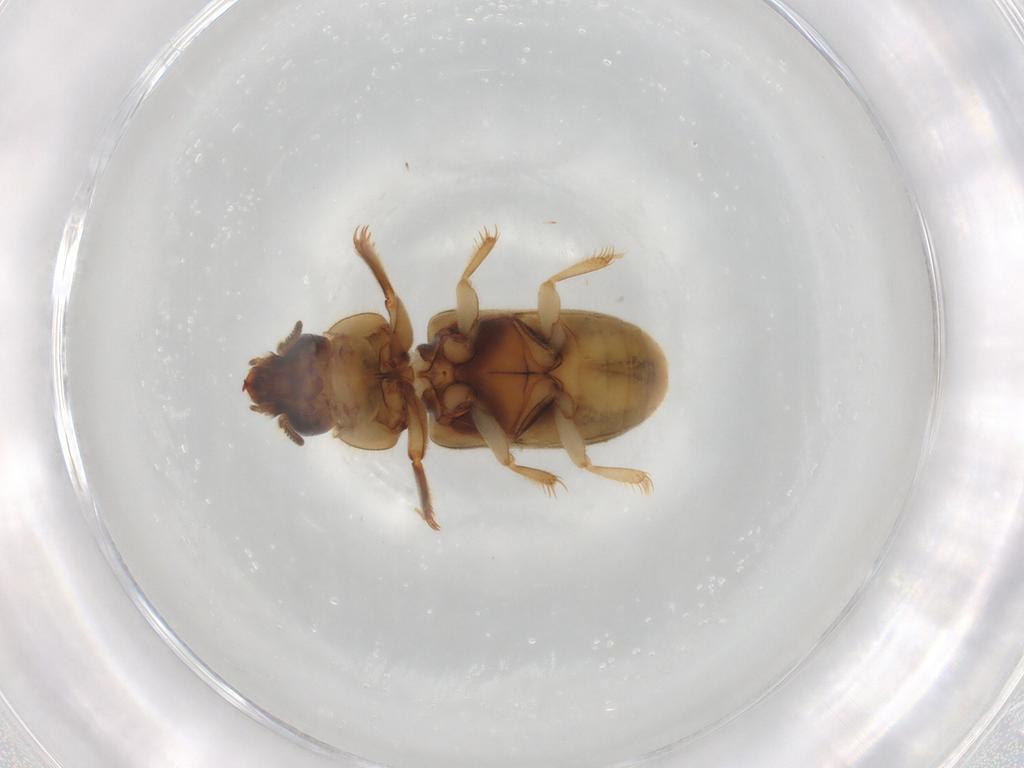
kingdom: Animalia
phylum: Arthropoda
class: Insecta
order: Coleoptera
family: Heteroceridae
